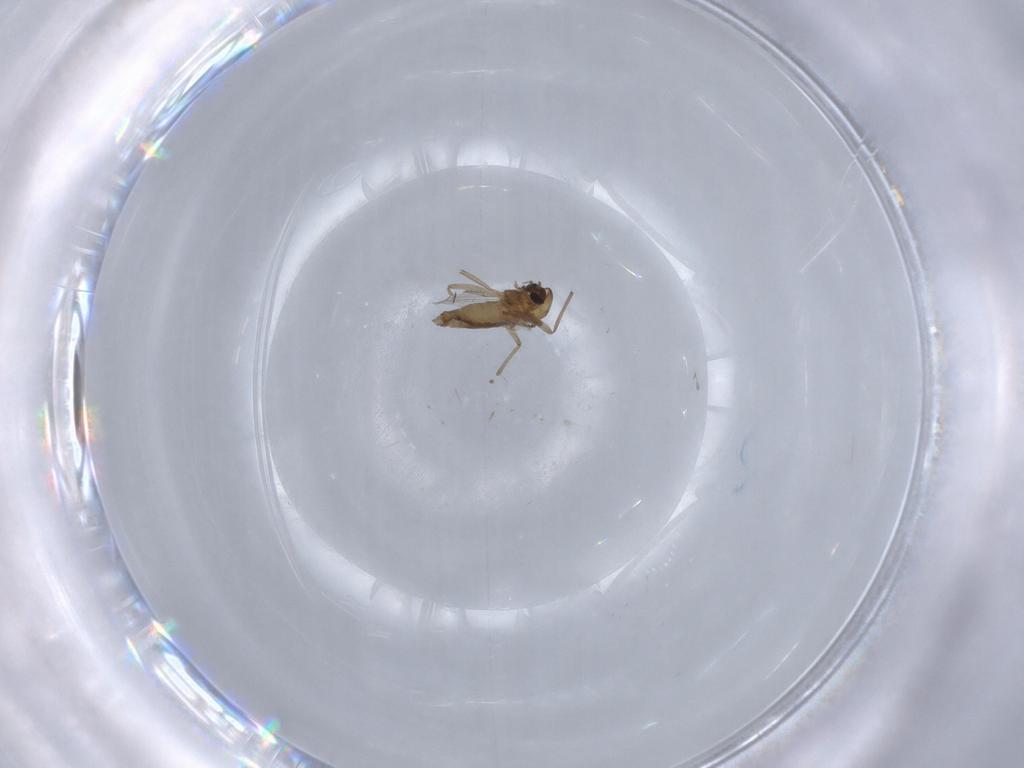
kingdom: Animalia
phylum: Arthropoda
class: Insecta
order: Diptera
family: Chironomidae
